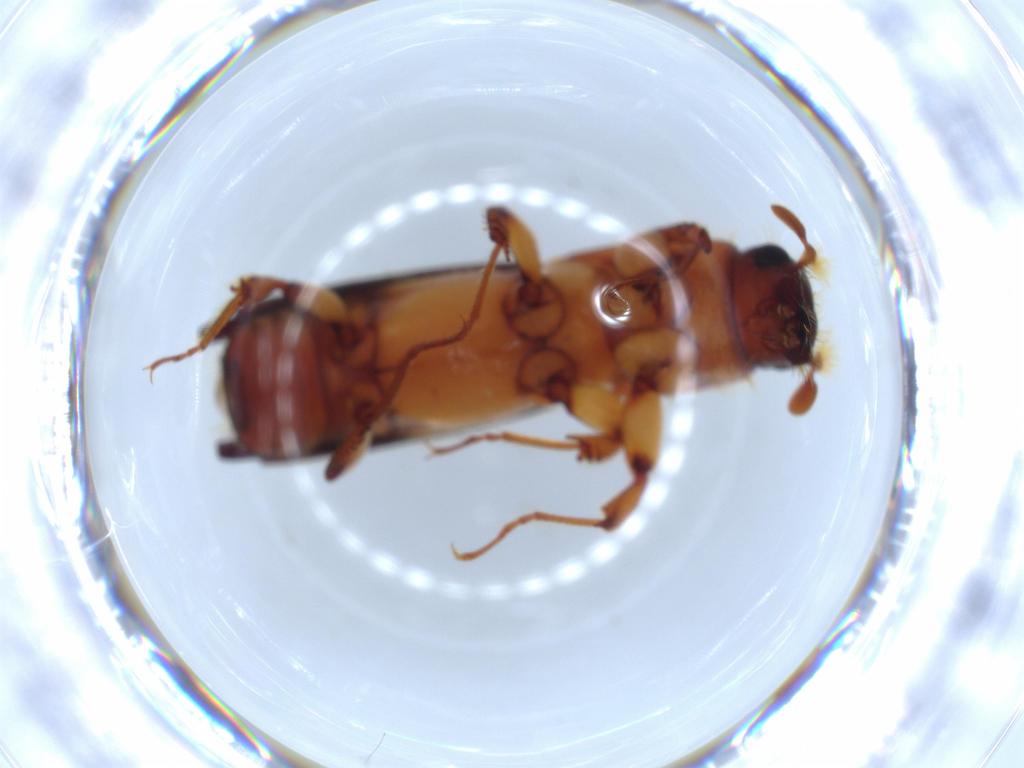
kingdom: Animalia
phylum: Arthropoda
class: Insecta
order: Coleoptera
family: Curculionidae
